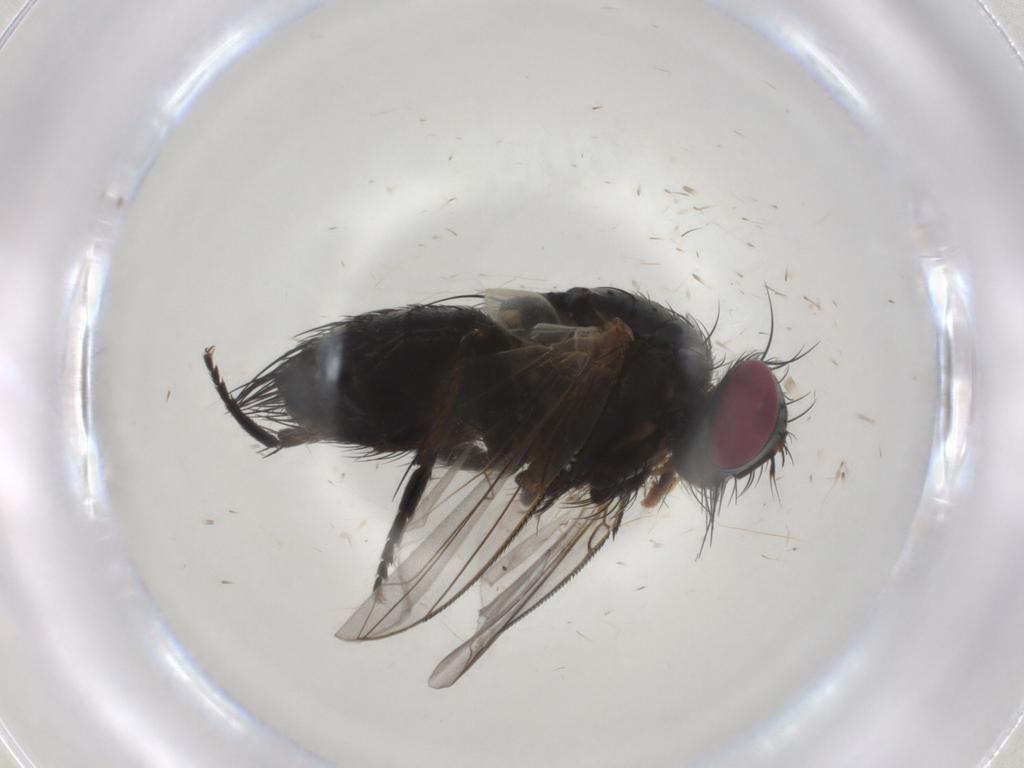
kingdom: Animalia
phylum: Arthropoda
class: Insecta
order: Diptera
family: Tachinidae
